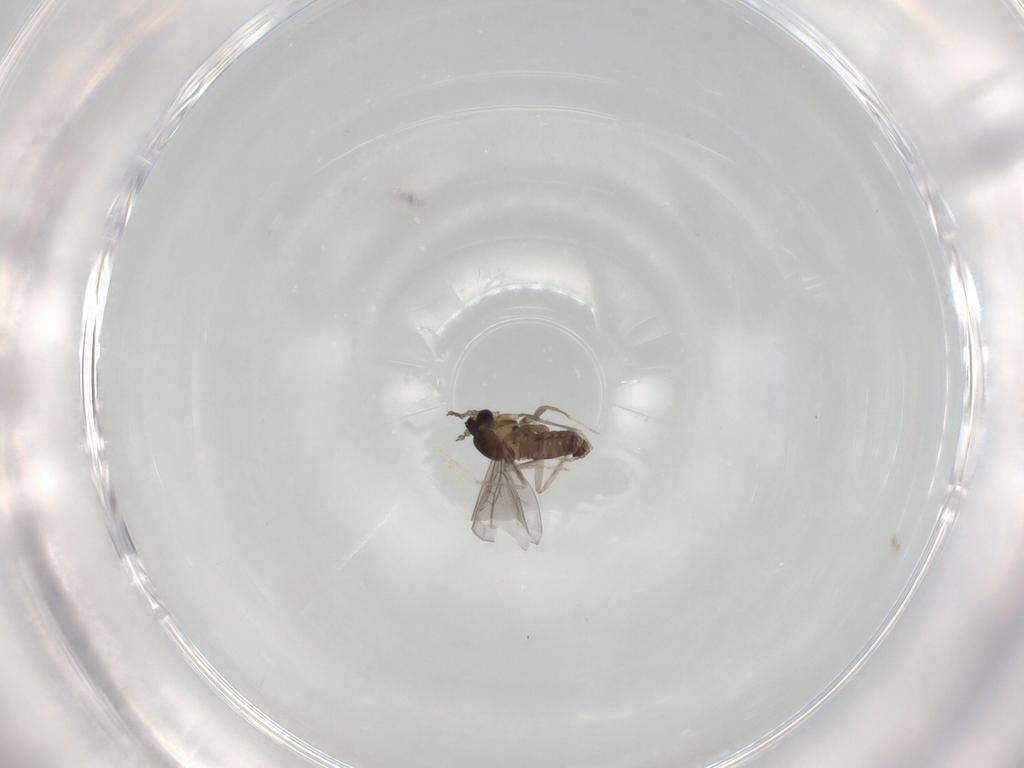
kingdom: Animalia
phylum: Arthropoda
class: Insecta
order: Diptera
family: Cecidomyiidae
